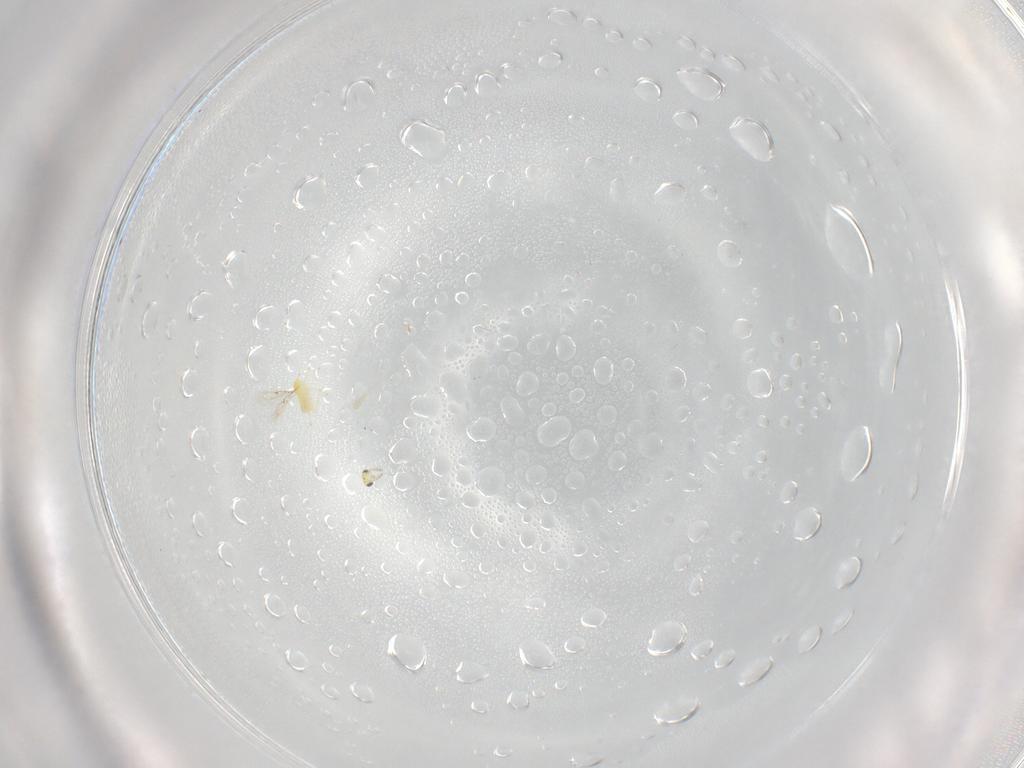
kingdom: Animalia
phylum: Arthropoda
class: Insecta
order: Hymenoptera
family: Trichogrammatidae
